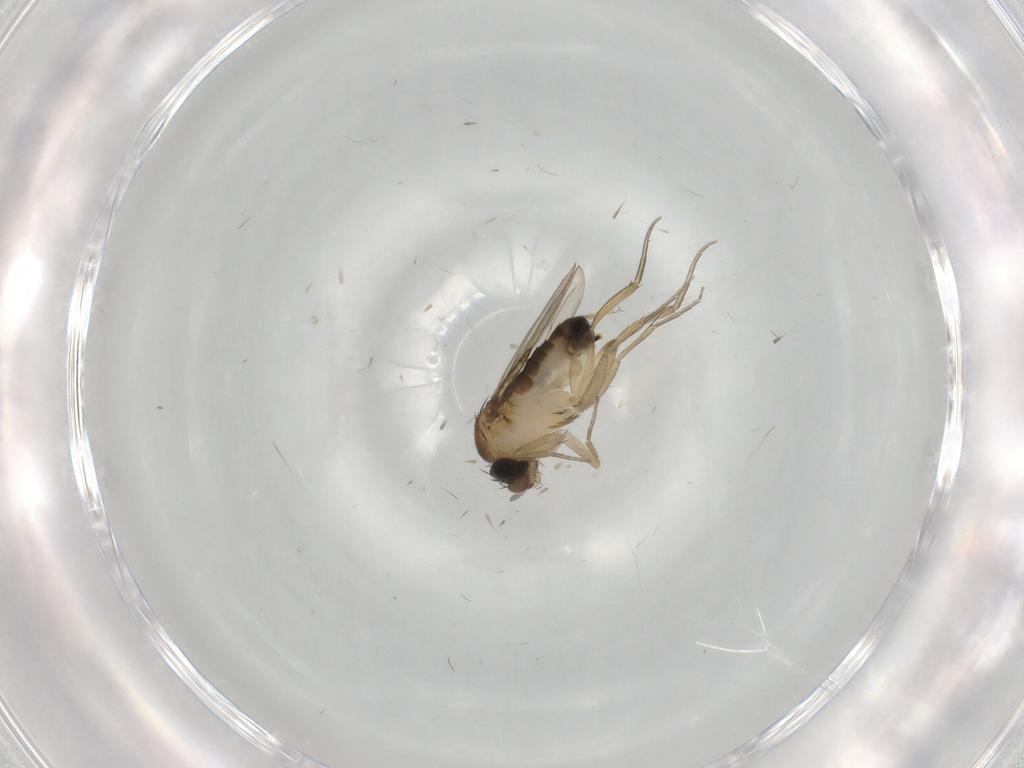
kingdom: Animalia
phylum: Arthropoda
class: Insecta
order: Diptera
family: Phoridae
